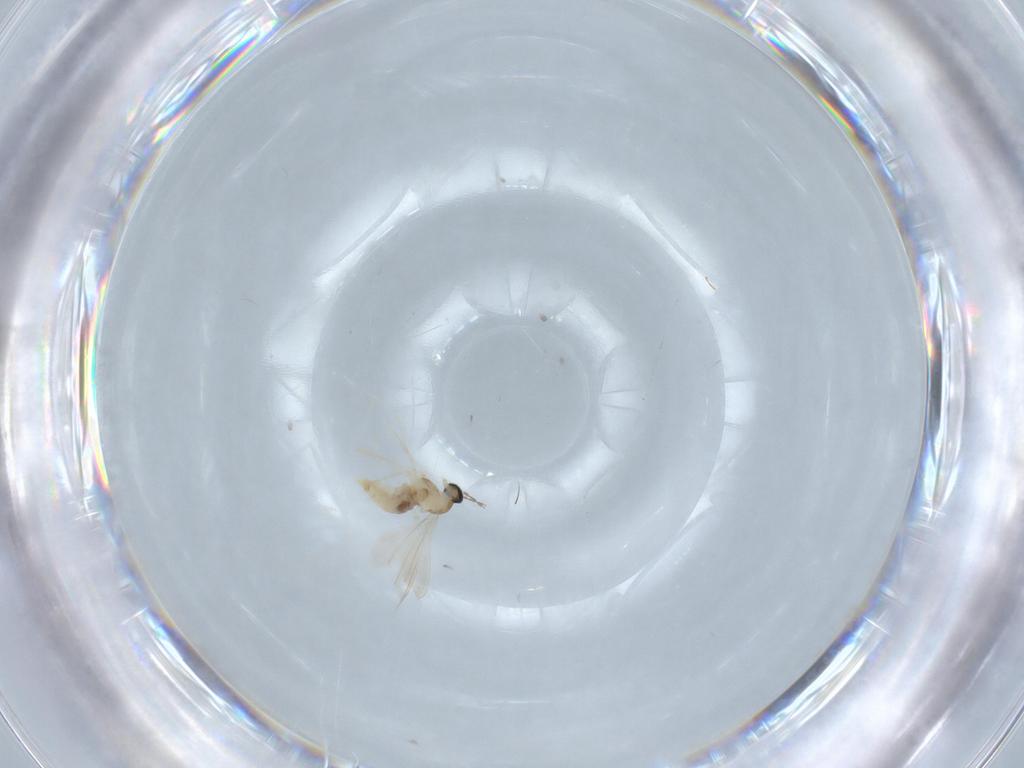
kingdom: Animalia
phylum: Arthropoda
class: Insecta
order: Diptera
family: Cecidomyiidae
